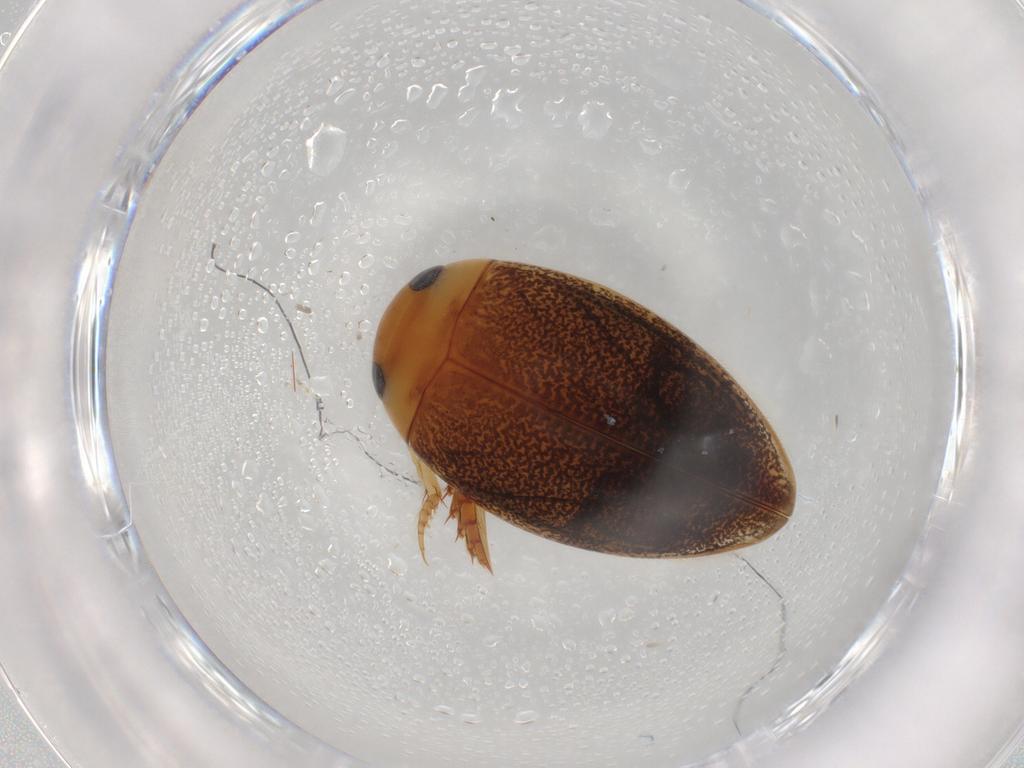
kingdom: Animalia
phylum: Arthropoda
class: Insecta
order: Coleoptera
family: Dytiscidae
